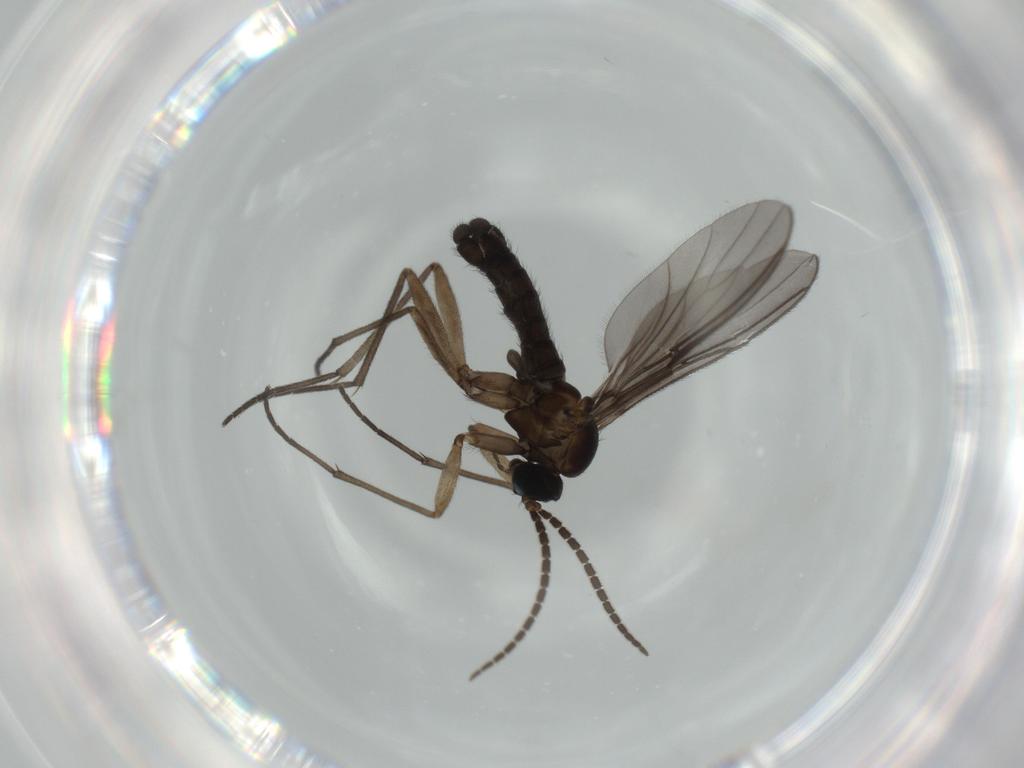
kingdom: Animalia
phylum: Arthropoda
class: Insecta
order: Diptera
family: Sciaridae
